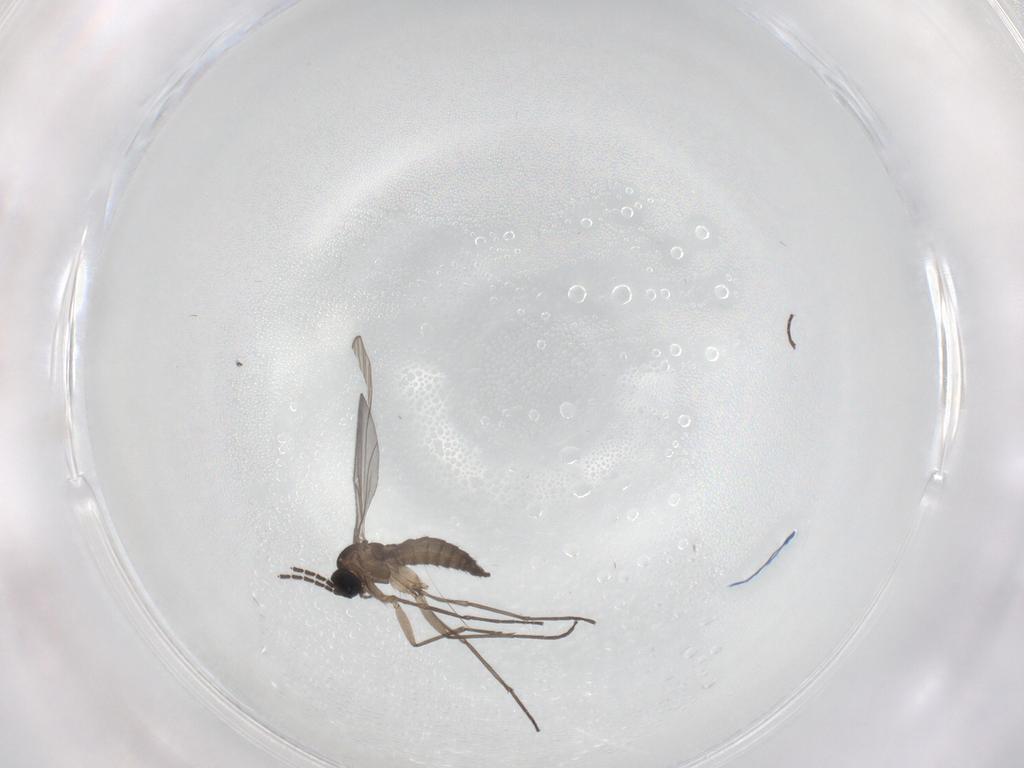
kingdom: Animalia
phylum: Arthropoda
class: Insecta
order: Diptera
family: Sciaridae
